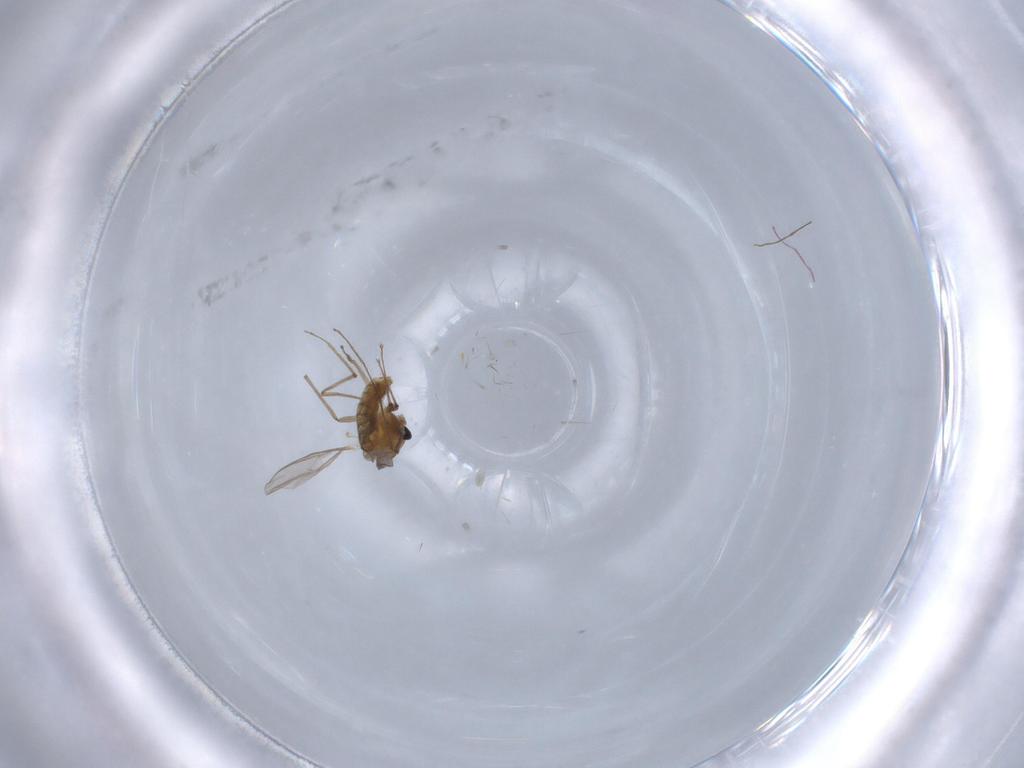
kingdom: Animalia
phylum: Arthropoda
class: Insecta
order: Diptera
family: Chironomidae
